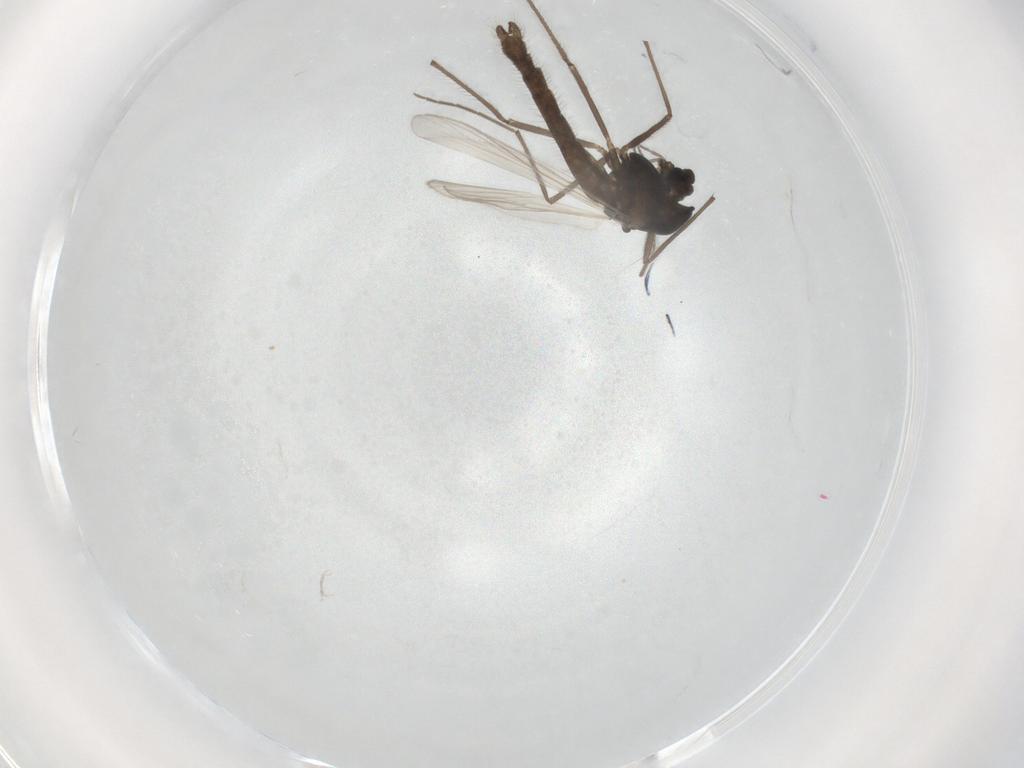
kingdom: Animalia
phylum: Arthropoda
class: Insecta
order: Diptera
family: Chironomidae
